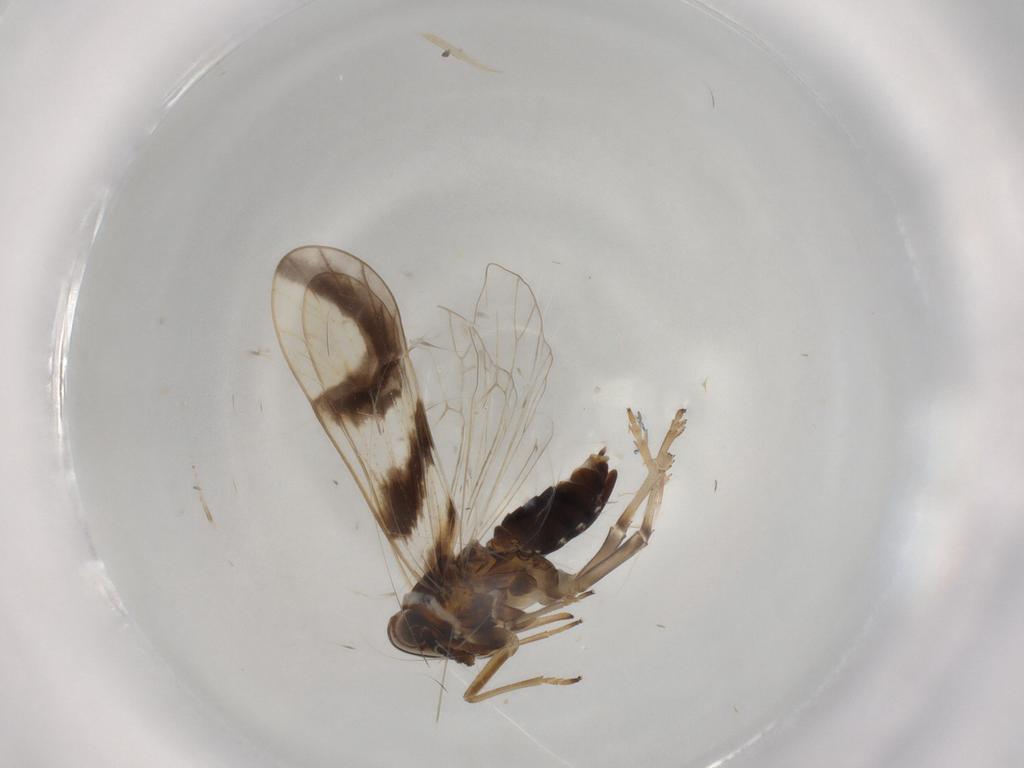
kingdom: Animalia
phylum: Arthropoda
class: Insecta
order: Hemiptera
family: Delphacidae
